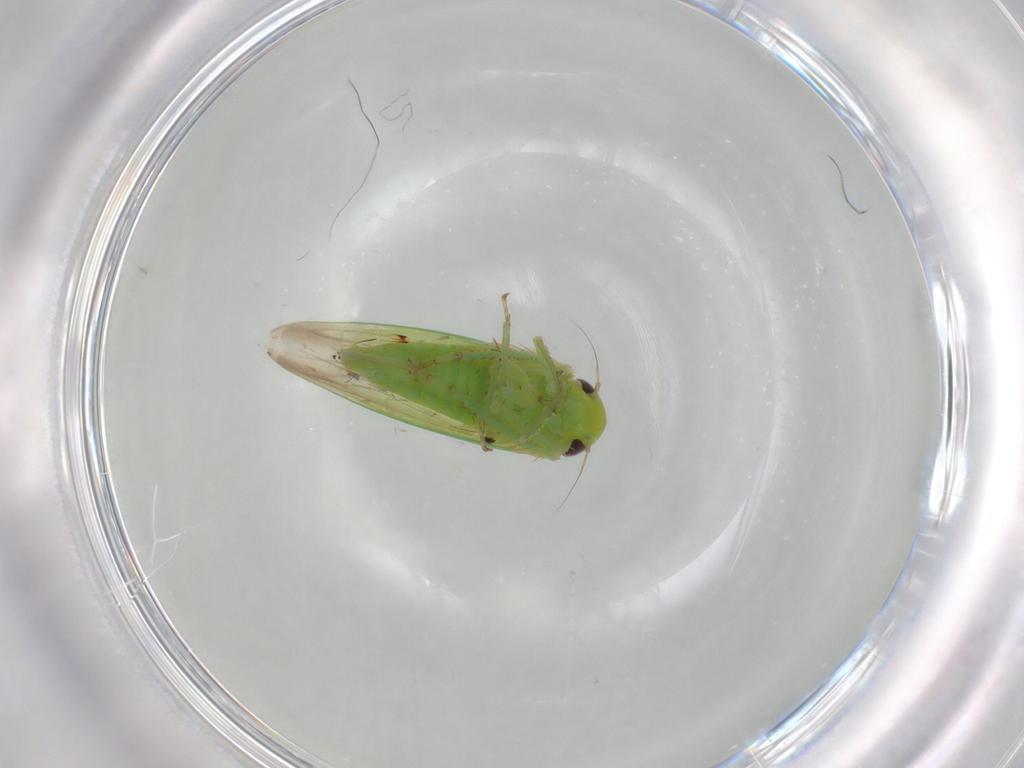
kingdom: Animalia
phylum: Arthropoda
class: Insecta
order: Hemiptera
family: Cicadellidae
